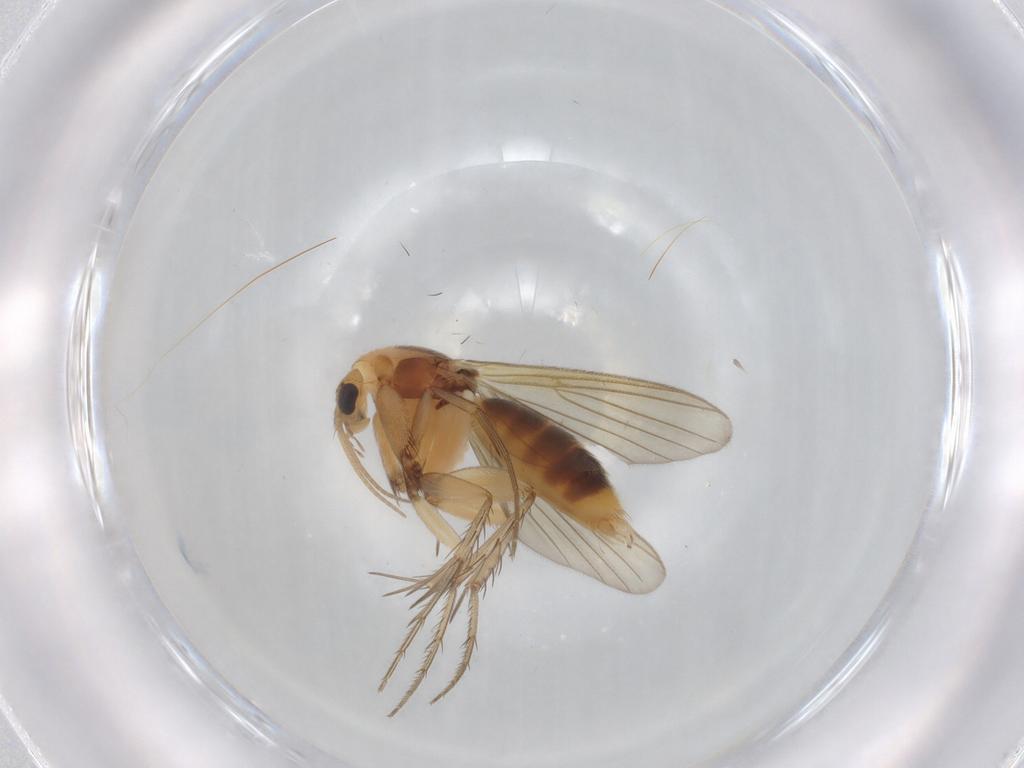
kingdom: Animalia
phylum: Arthropoda
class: Insecta
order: Diptera
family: Mycetophilidae
